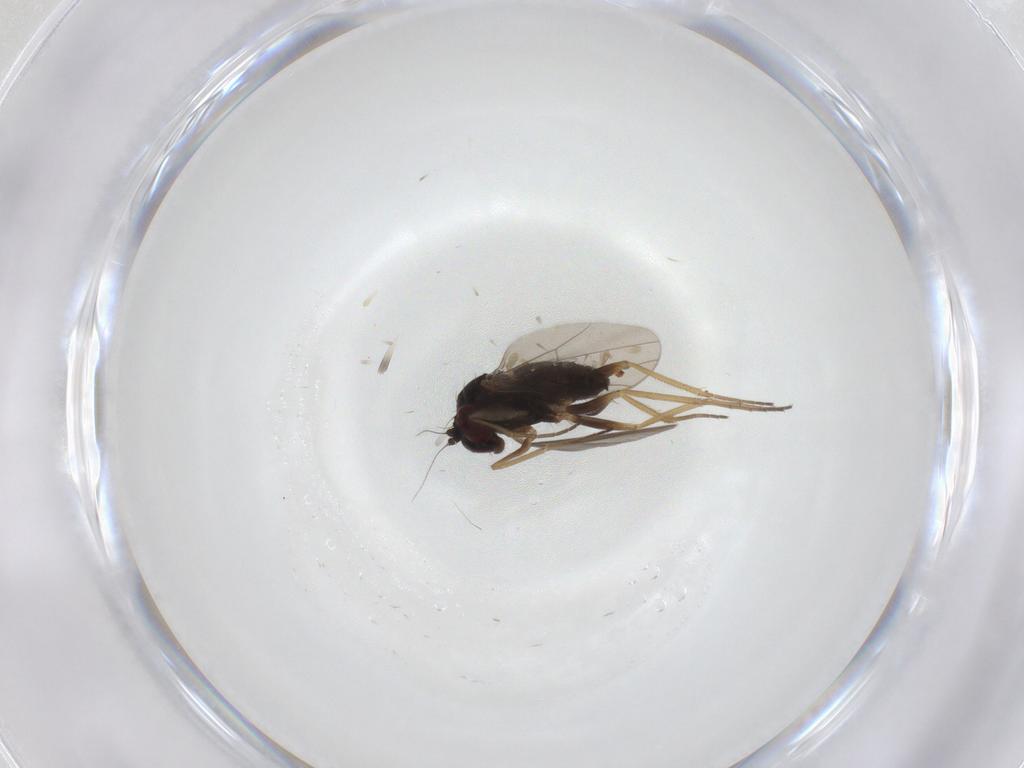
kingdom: Animalia
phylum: Arthropoda
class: Insecta
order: Diptera
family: Dolichopodidae
